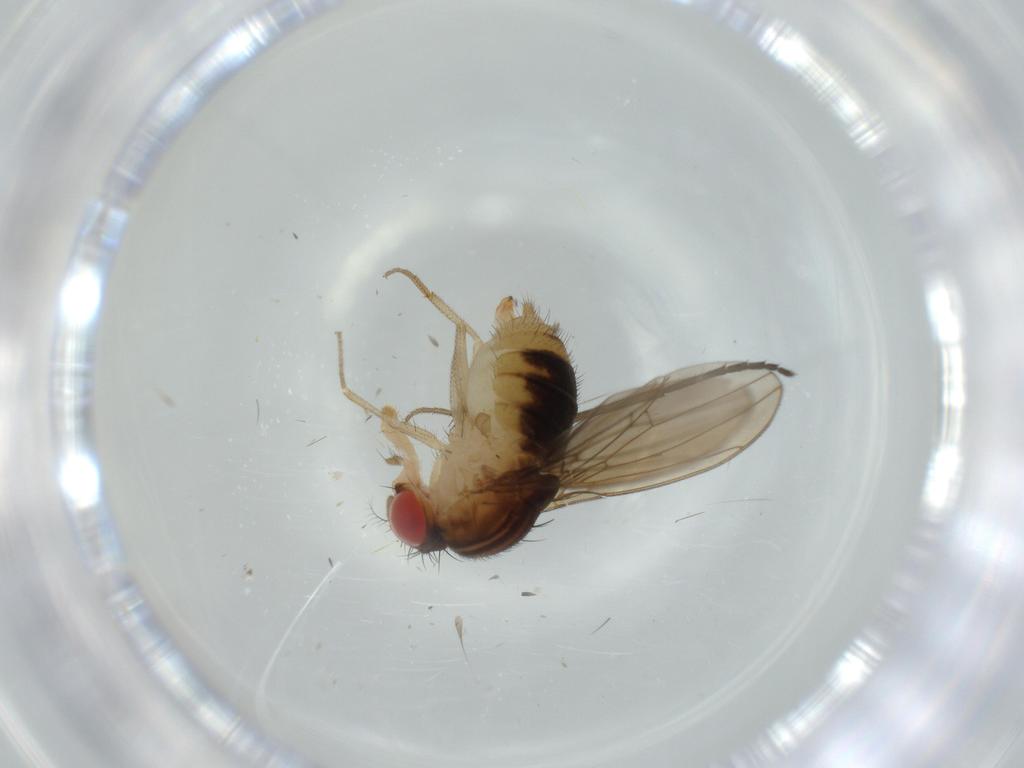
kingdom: Animalia
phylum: Arthropoda
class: Insecta
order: Diptera
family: Drosophilidae
